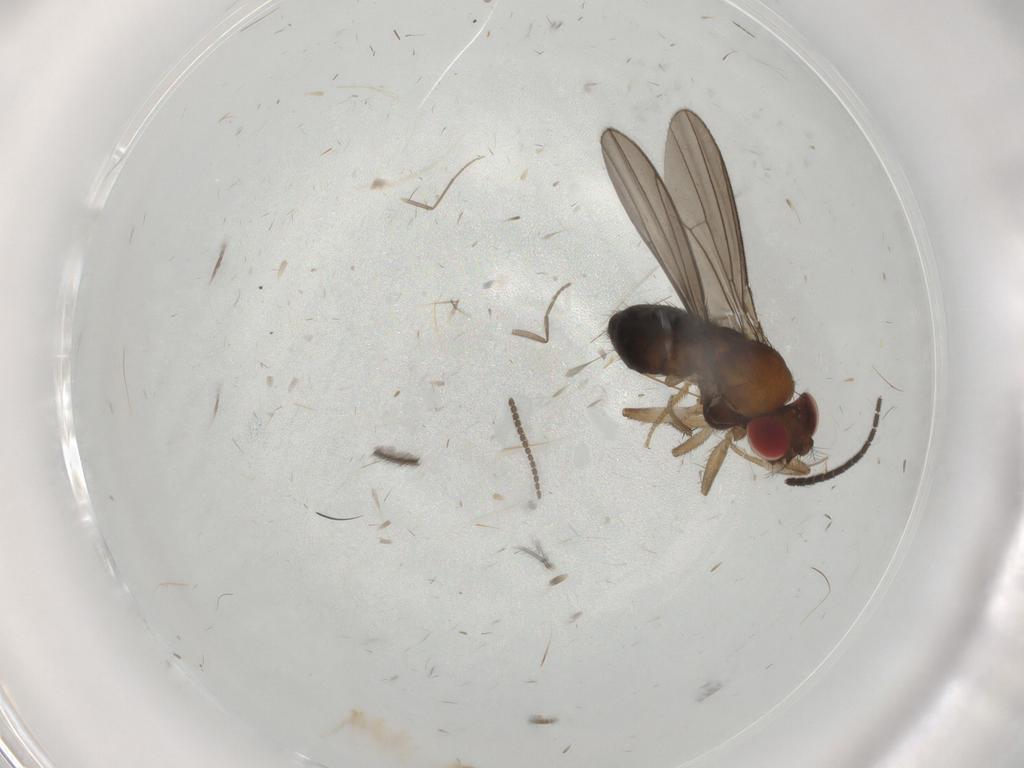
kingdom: Animalia
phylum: Arthropoda
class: Insecta
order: Diptera
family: Drosophilidae
